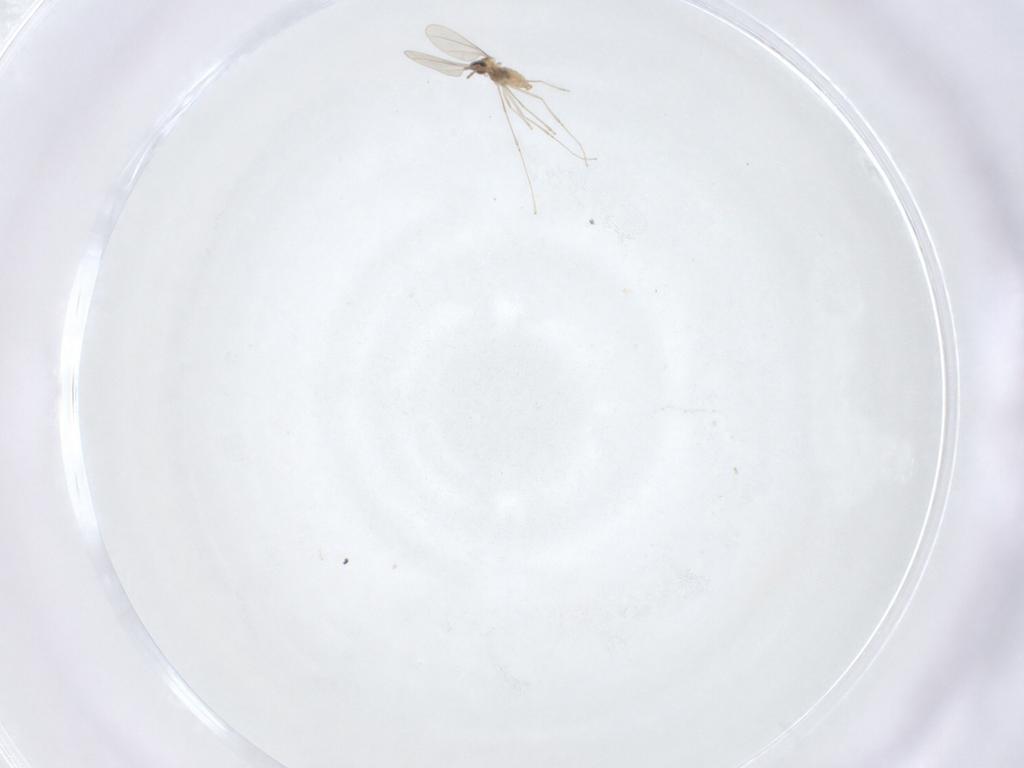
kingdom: Animalia
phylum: Arthropoda
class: Insecta
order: Diptera
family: Cecidomyiidae
